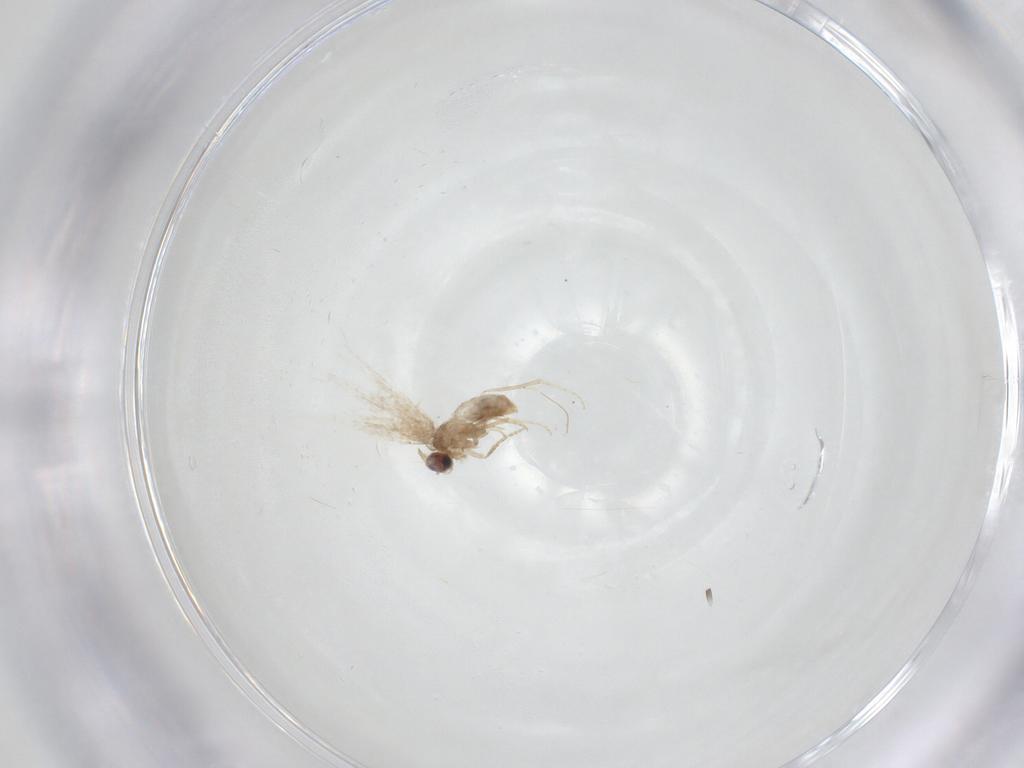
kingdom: Animalia
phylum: Arthropoda
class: Insecta
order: Lepidoptera
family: Nepticulidae
